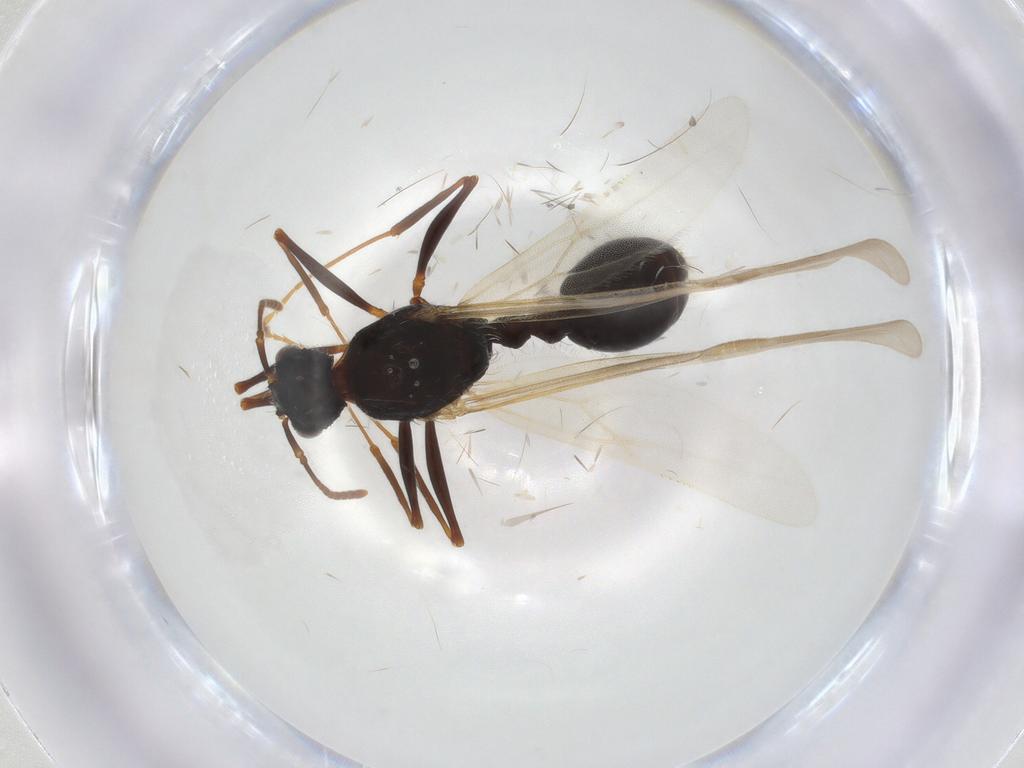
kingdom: Animalia
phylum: Arthropoda
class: Insecta
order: Hymenoptera
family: Formicidae
